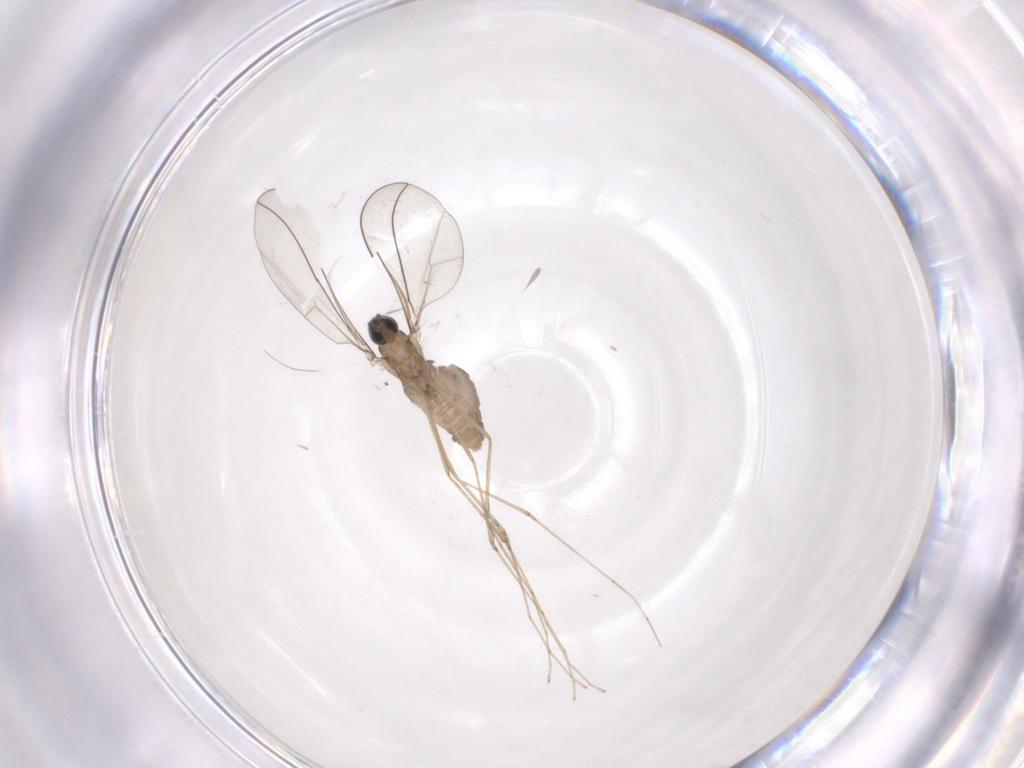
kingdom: Animalia
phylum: Arthropoda
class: Insecta
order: Diptera
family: Cecidomyiidae
